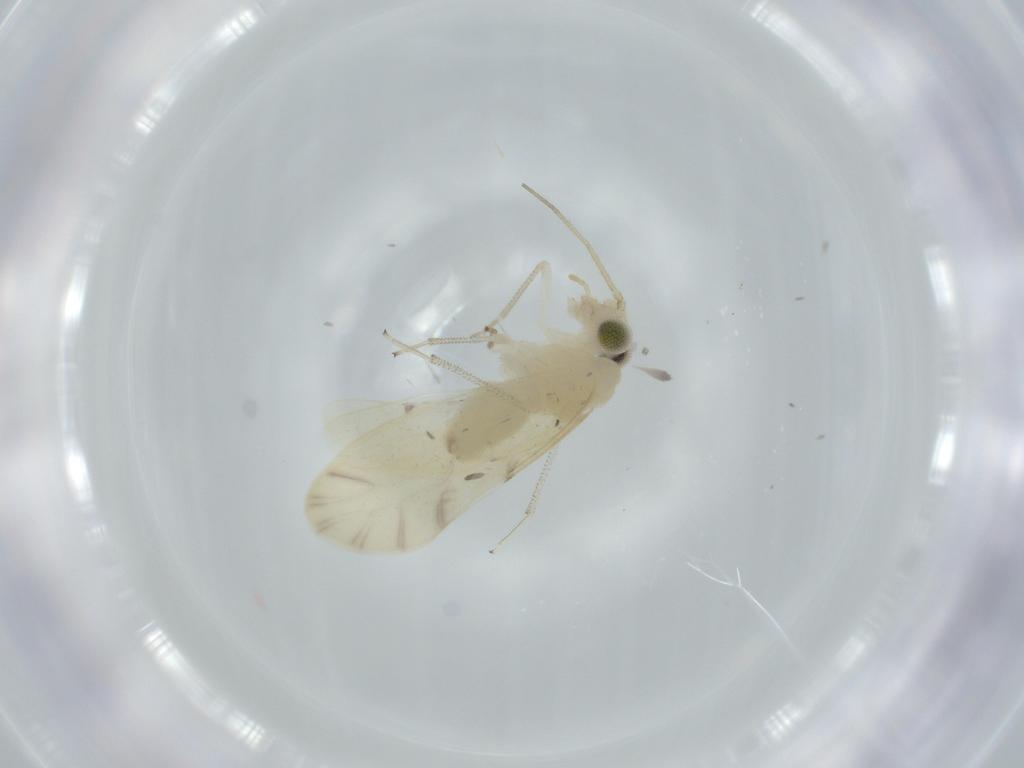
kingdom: Animalia
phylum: Arthropoda
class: Insecta
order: Psocodea
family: Caeciliusidae
